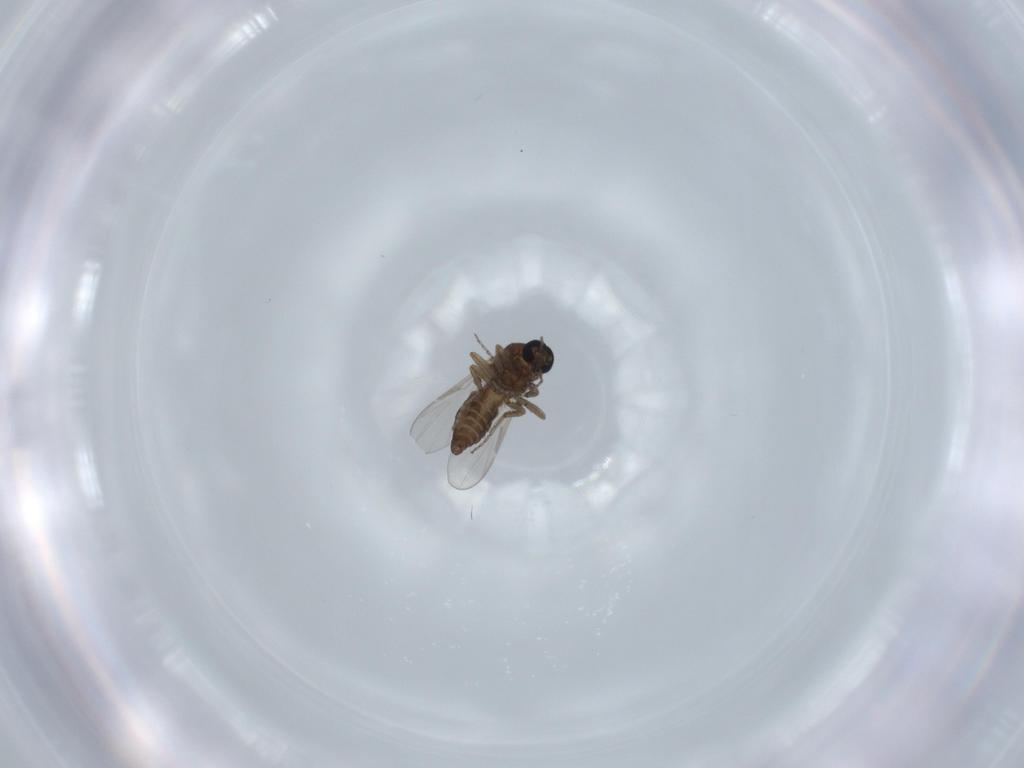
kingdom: Animalia
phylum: Arthropoda
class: Insecta
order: Diptera
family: Ceratopogonidae
